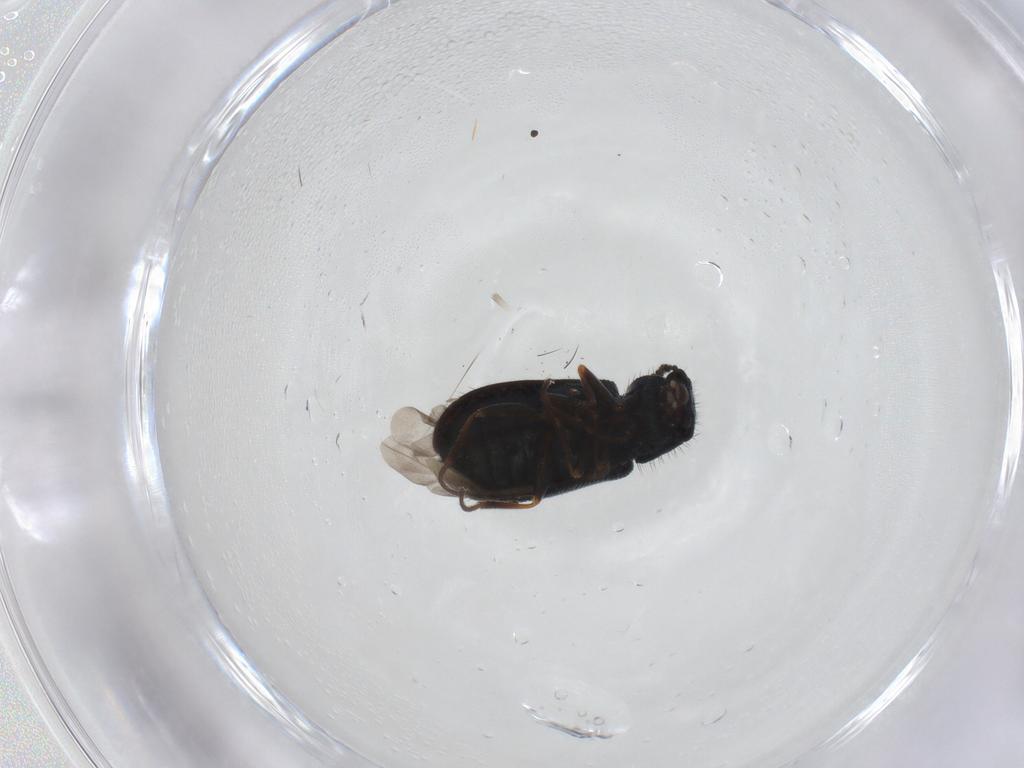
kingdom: Animalia
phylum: Arthropoda
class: Insecta
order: Coleoptera
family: Melyridae
